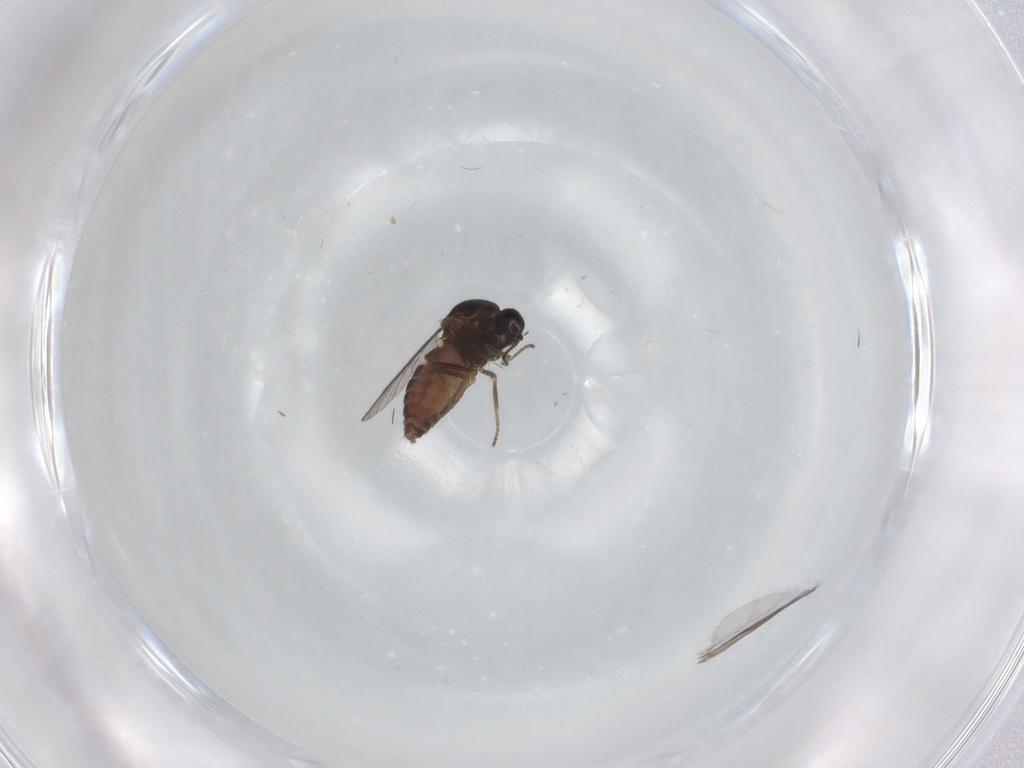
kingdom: Animalia
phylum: Arthropoda
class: Insecta
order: Diptera
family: Ceratopogonidae
